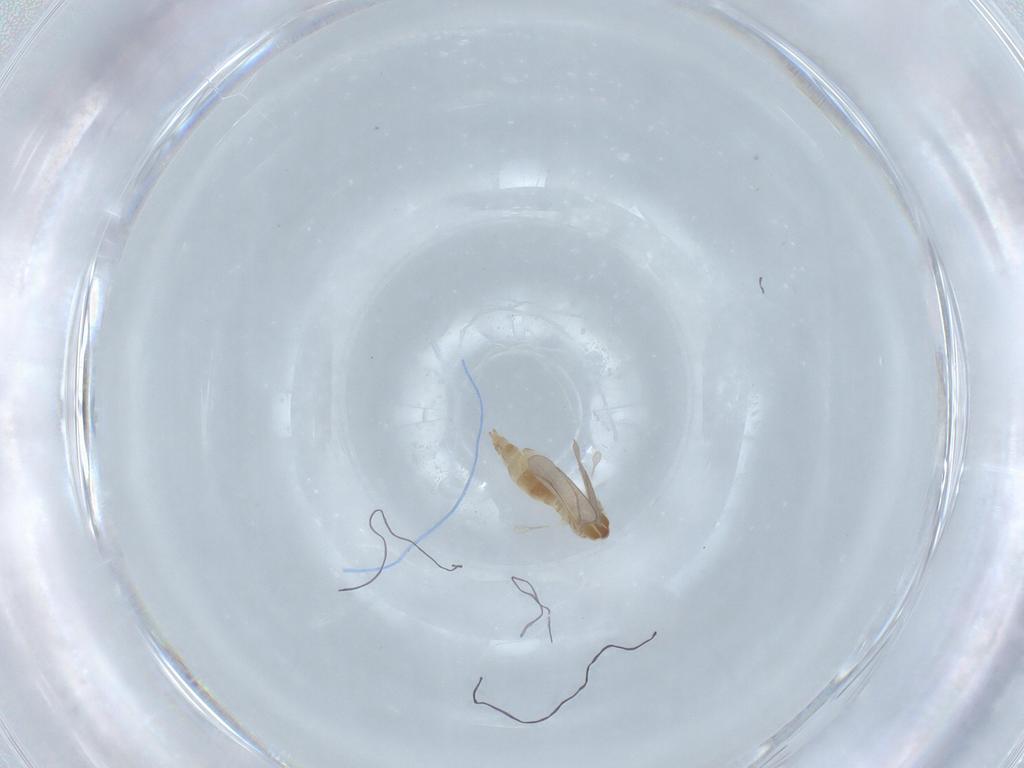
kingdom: Animalia
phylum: Arthropoda
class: Insecta
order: Diptera
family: Cecidomyiidae
